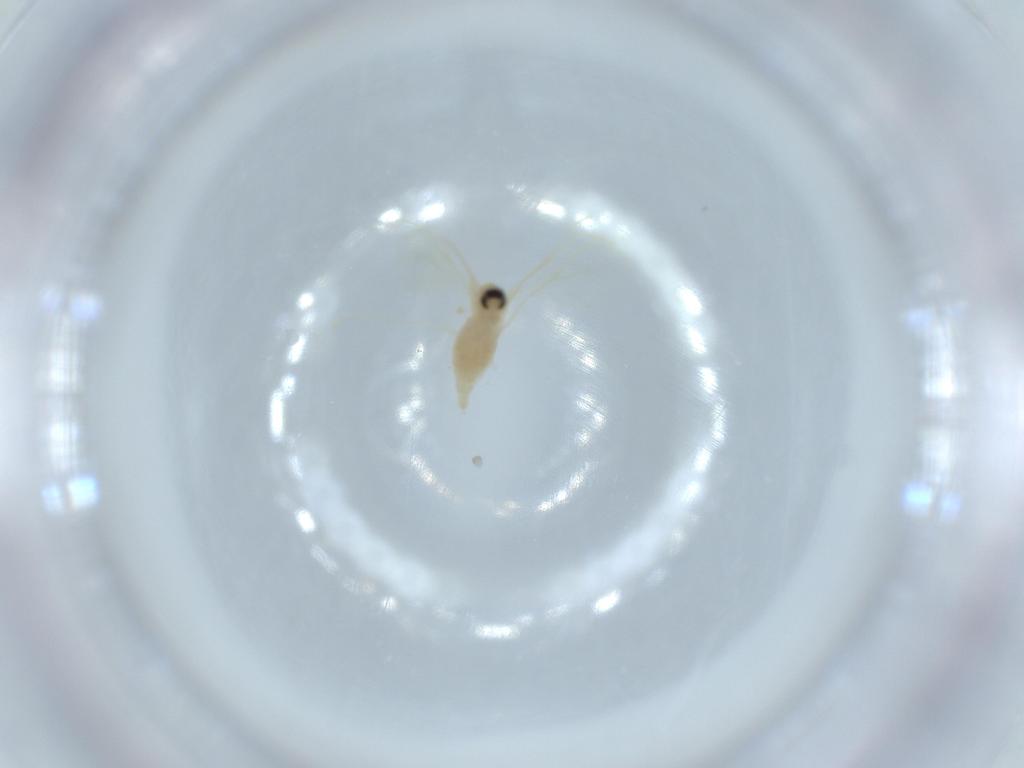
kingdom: Animalia
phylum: Arthropoda
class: Insecta
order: Diptera
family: Cecidomyiidae
